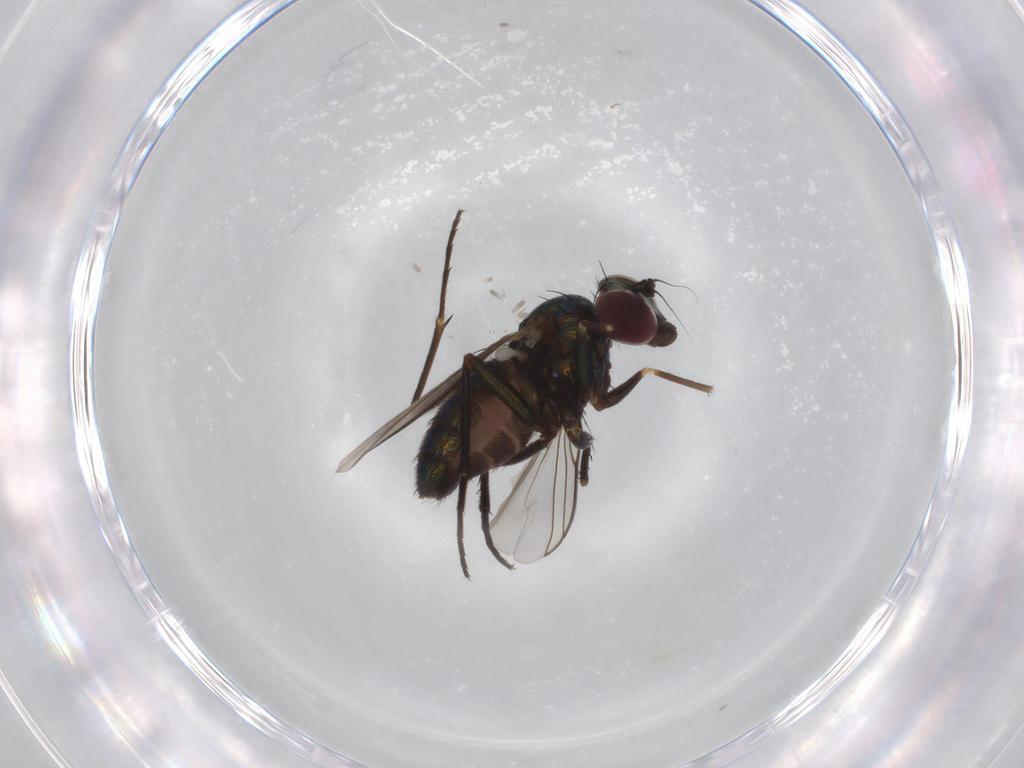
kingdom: Animalia
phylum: Arthropoda
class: Insecta
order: Diptera
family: Dolichopodidae
